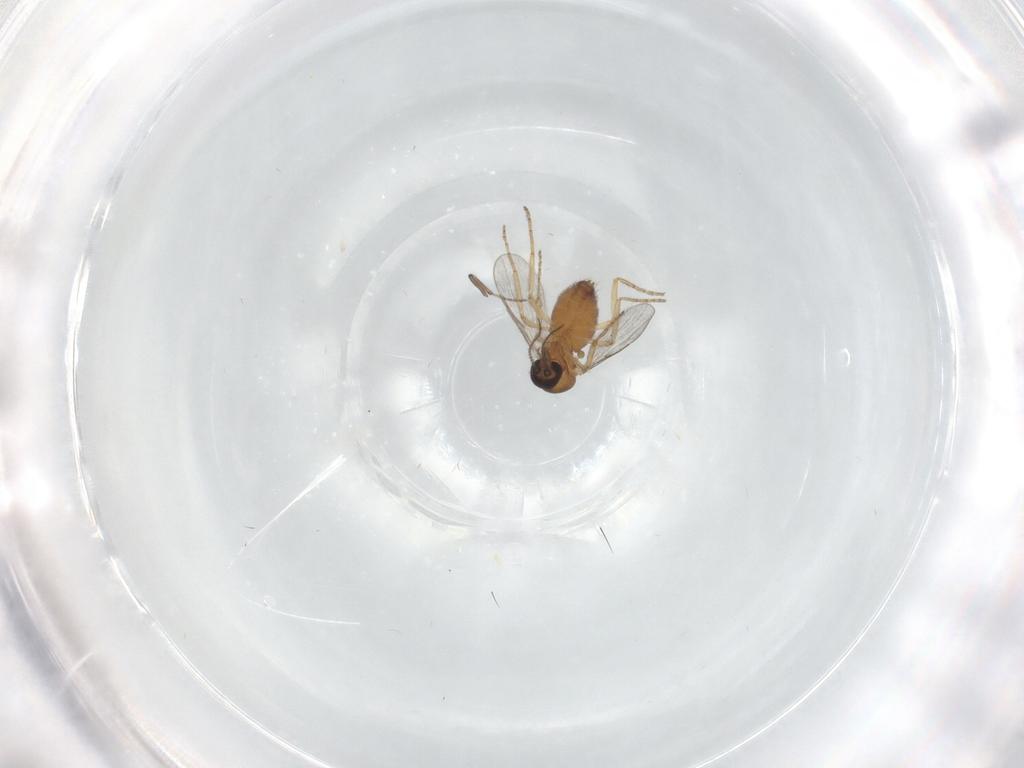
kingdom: Animalia
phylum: Arthropoda
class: Insecta
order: Diptera
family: Ceratopogonidae
